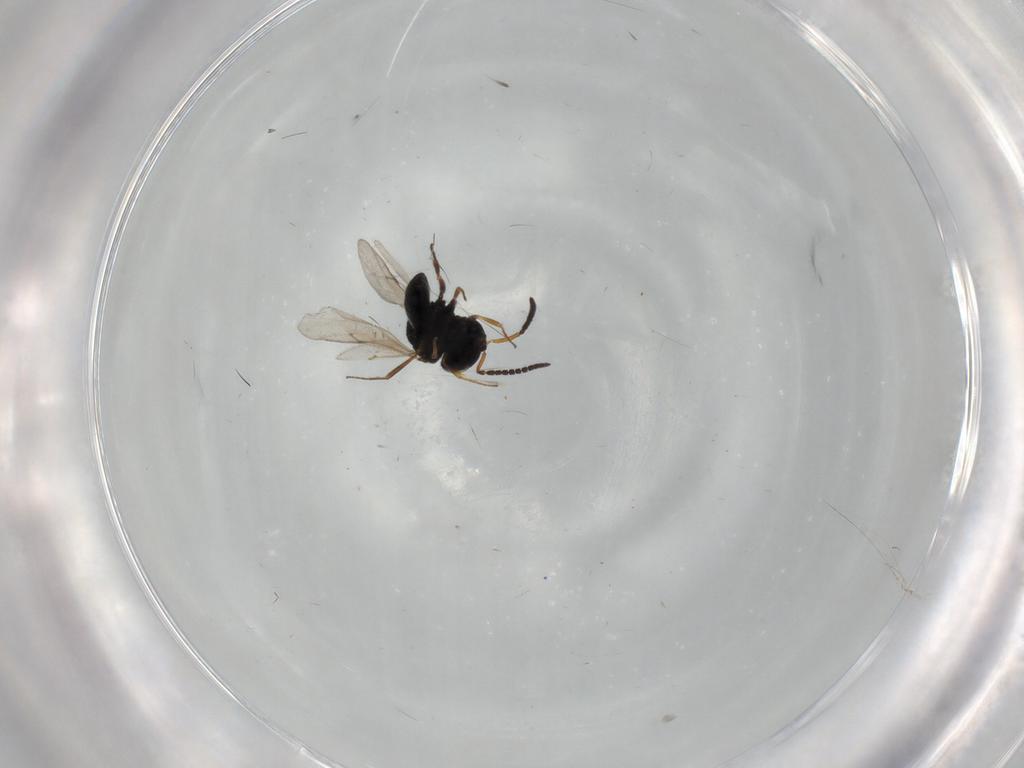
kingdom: Animalia
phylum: Arthropoda
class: Insecta
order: Hymenoptera
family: Scelionidae
